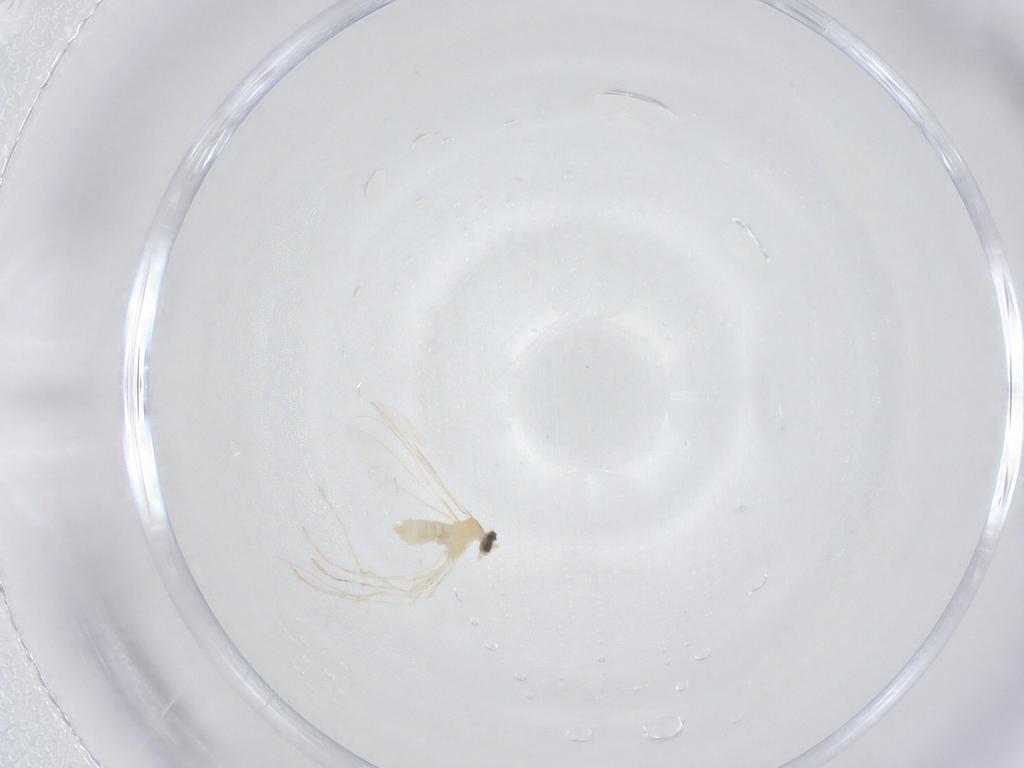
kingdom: Animalia
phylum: Arthropoda
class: Insecta
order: Diptera
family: Cecidomyiidae
